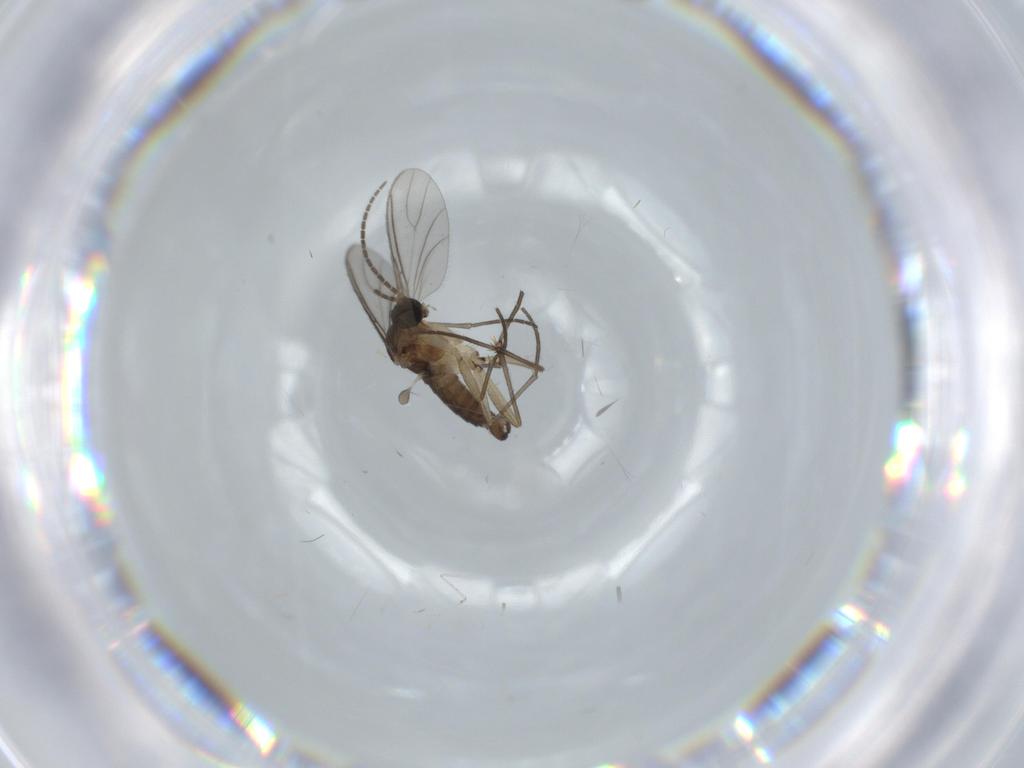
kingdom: Animalia
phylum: Arthropoda
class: Insecta
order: Diptera
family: Sciaridae
